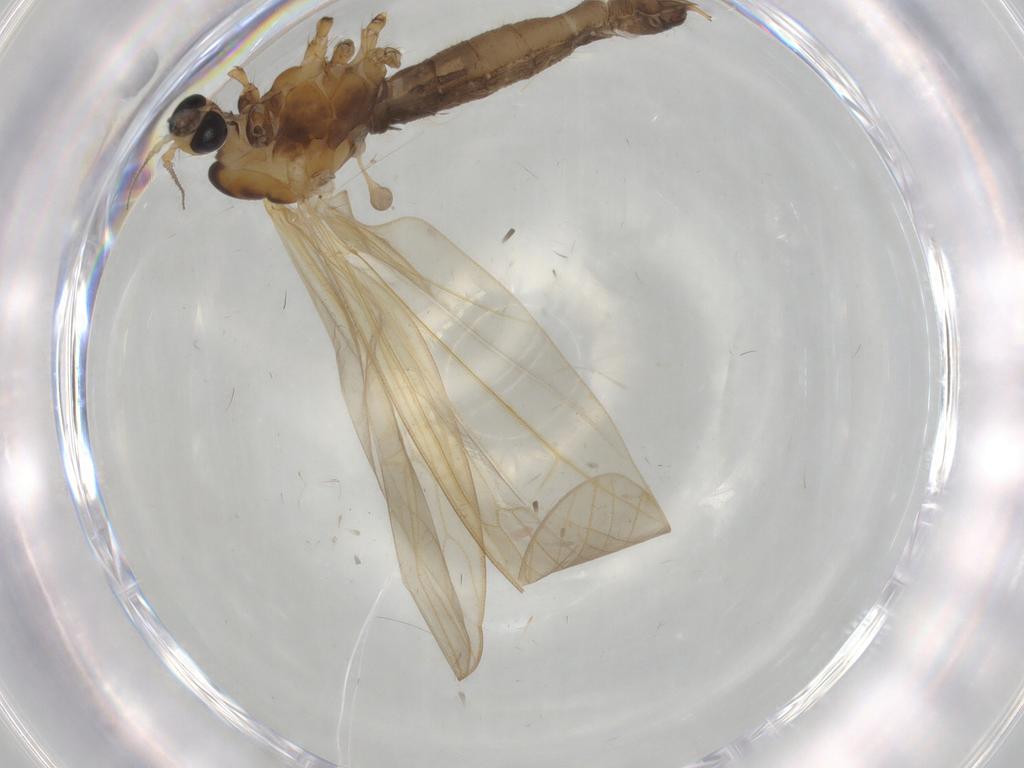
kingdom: Animalia
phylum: Arthropoda
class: Insecta
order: Diptera
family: Limoniidae
